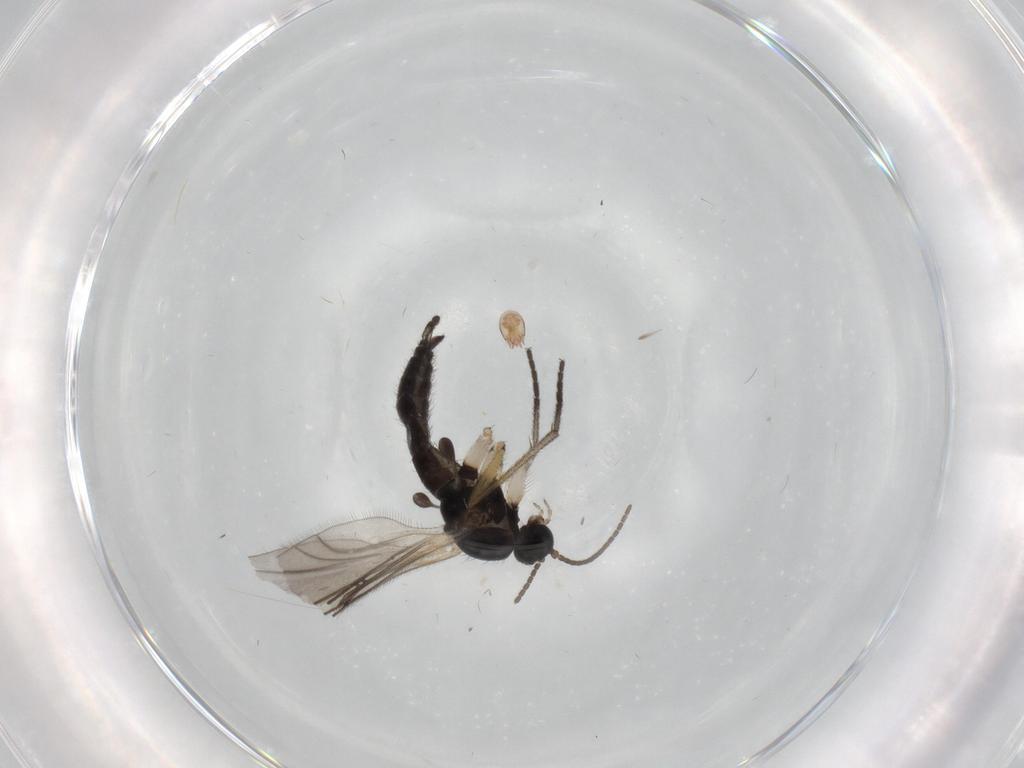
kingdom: Animalia
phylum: Arthropoda
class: Insecta
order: Diptera
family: Sciaridae
